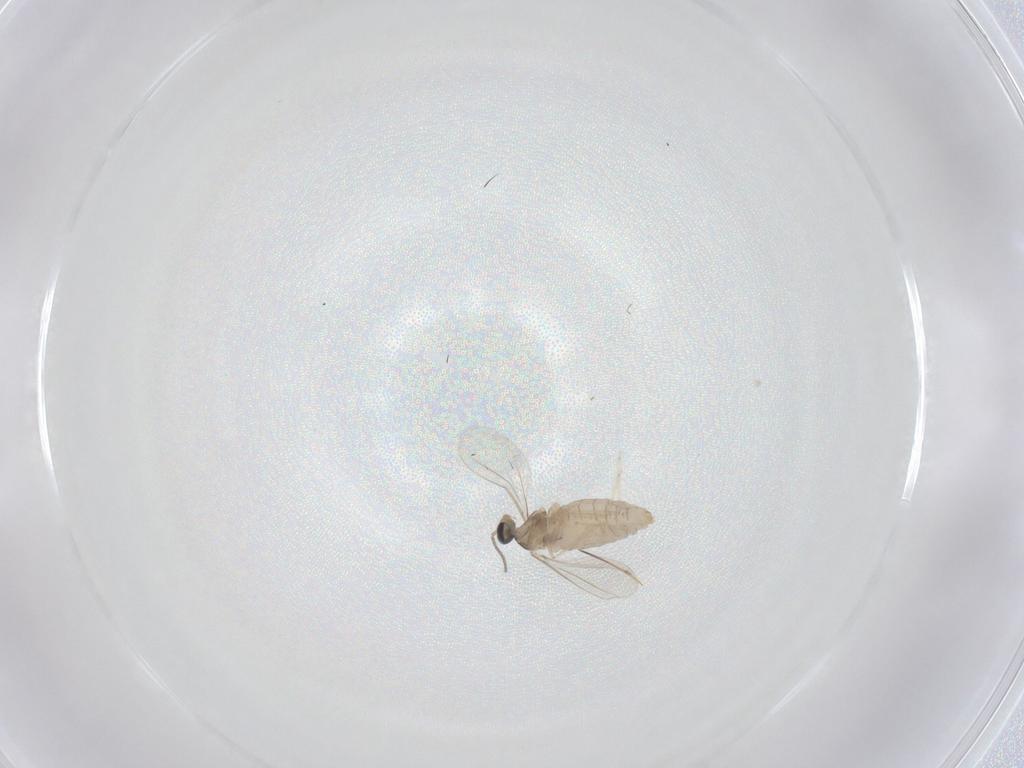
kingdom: Animalia
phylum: Arthropoda
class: Insecta
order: Diptera
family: Cecidomyiidae
